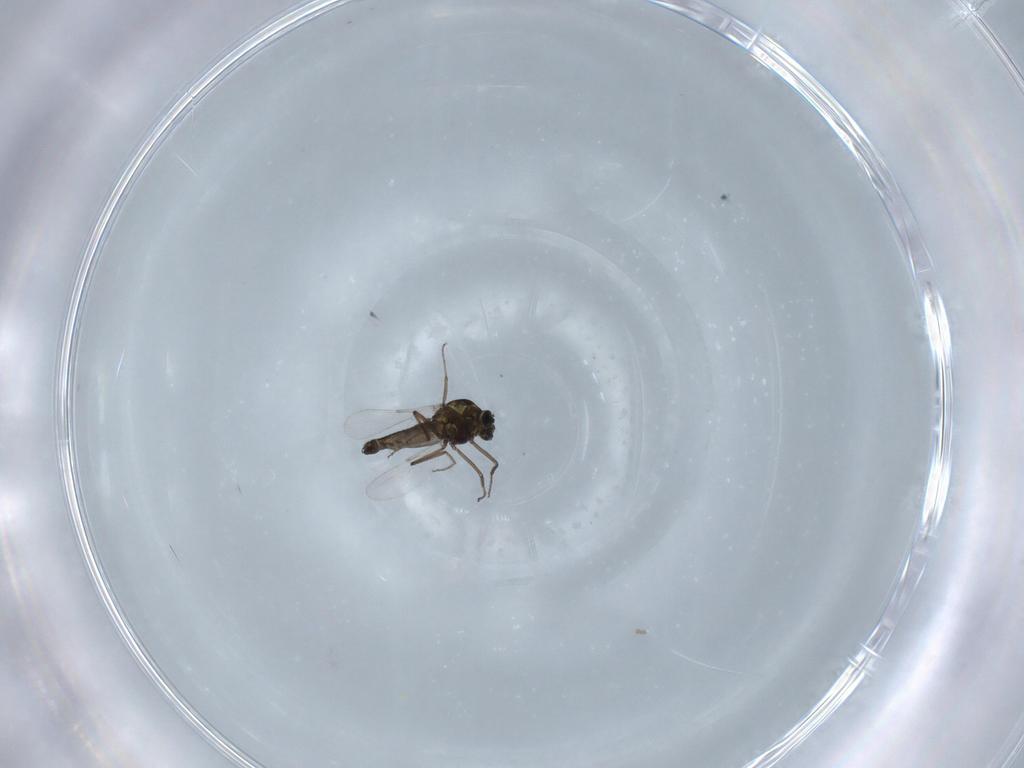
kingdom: Animalia
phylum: Arthropoda
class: Insecta
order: Diptera
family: Ceratopogonidae
